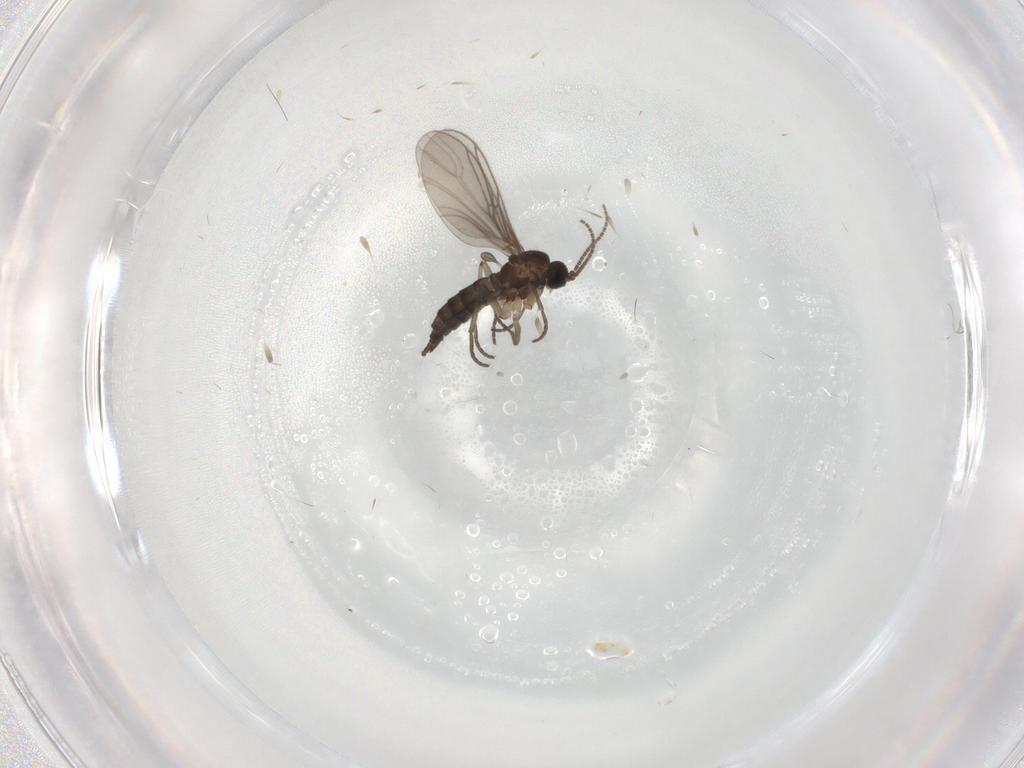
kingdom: Animalia
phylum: Arthropoda
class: Insecta
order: Diptera
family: Sciaridae
